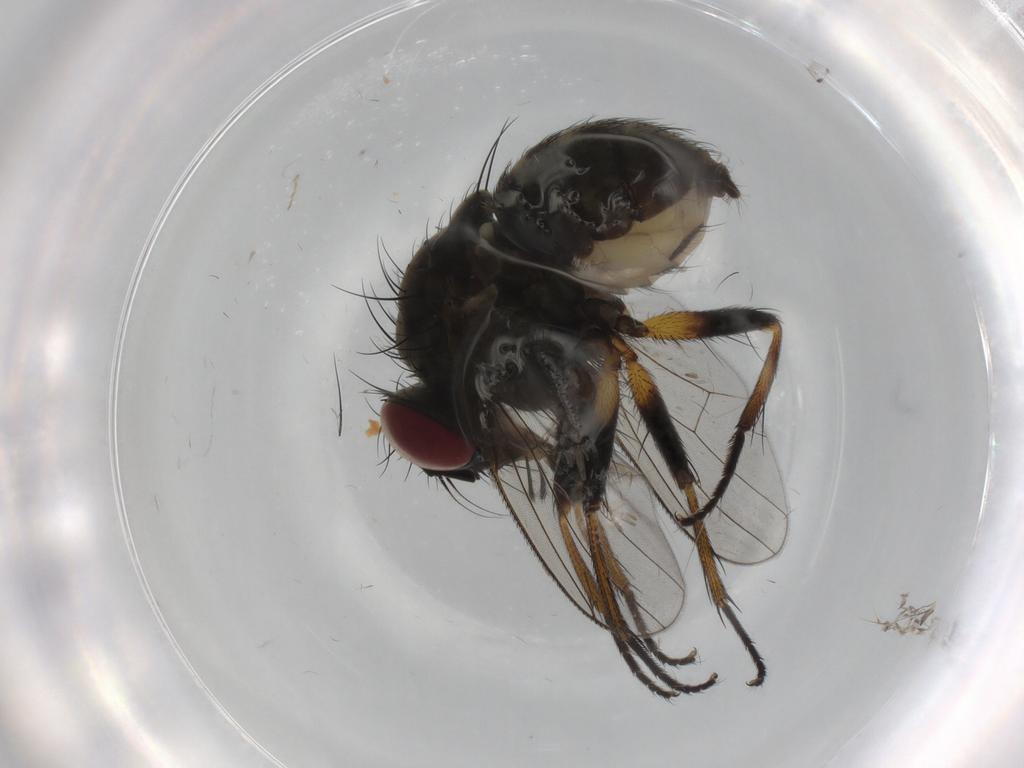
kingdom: Animalia
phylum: Arthropoda
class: Insecta
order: Diptera
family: Muscidae
